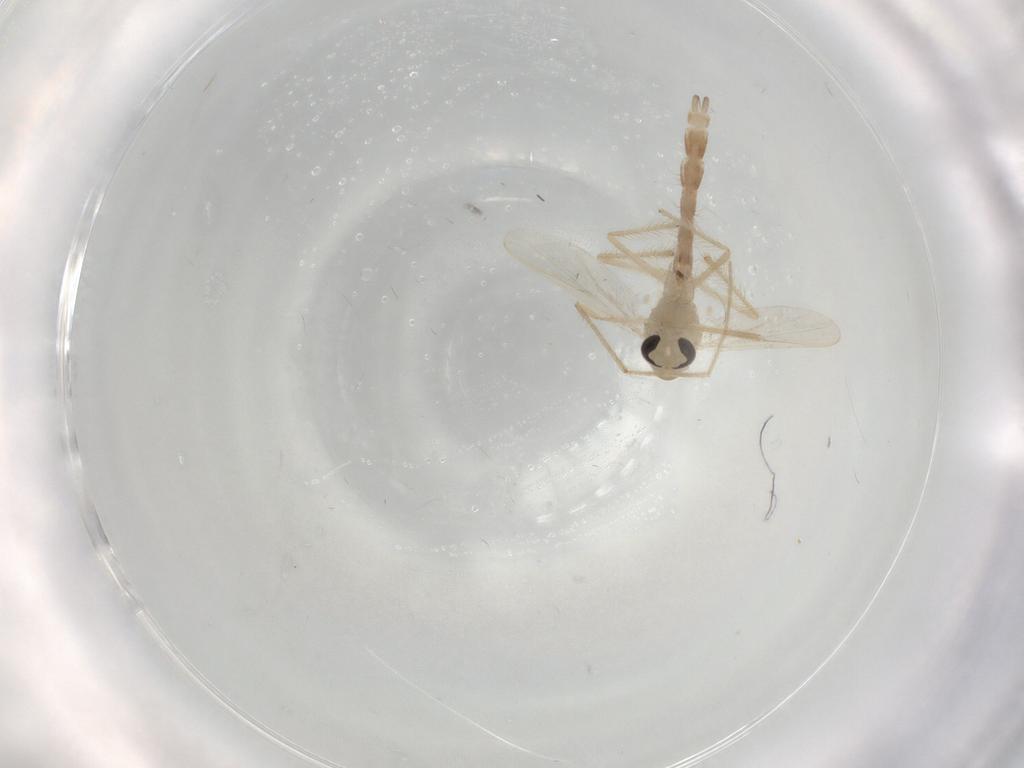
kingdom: Animalia
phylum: Arthropoda
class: Insecta
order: Diptera
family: Chironomidae
